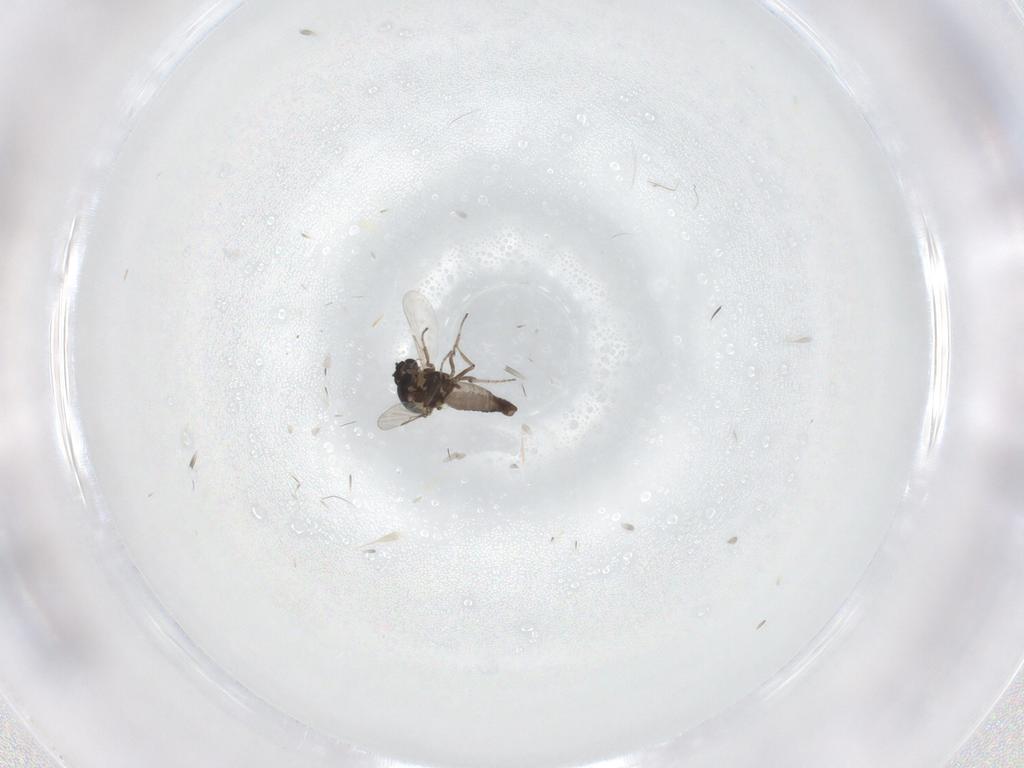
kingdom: Animalia
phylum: Arthropoda
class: Insecta
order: Diptera
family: Ceratopogonidae
